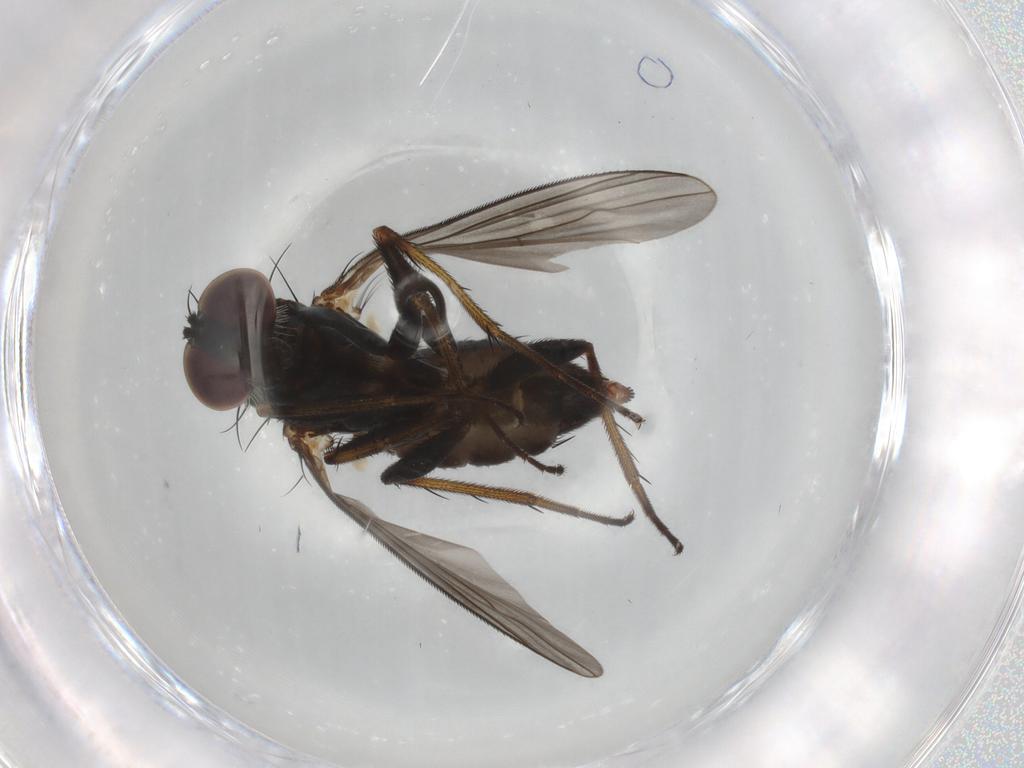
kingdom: Animalia
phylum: Arthropoda
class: Insecta
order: Diptera
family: Dolichopodidae
